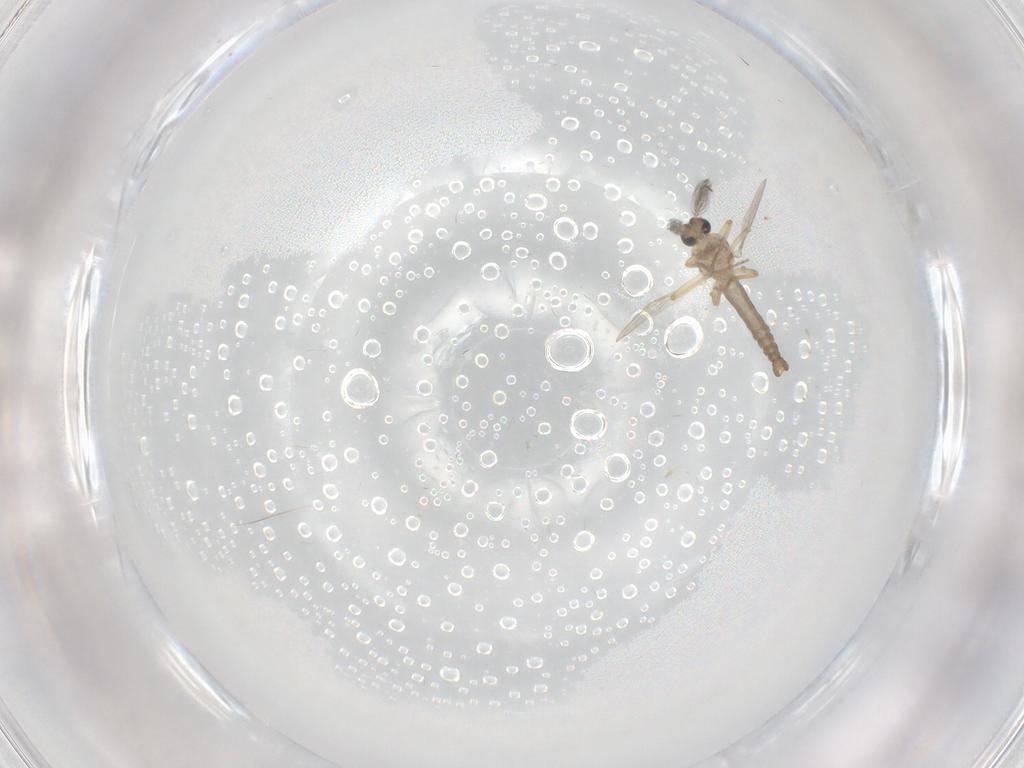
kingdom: Animalia
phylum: Arthropoda
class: Insecta
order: Diptera
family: Ceratopogonidae
